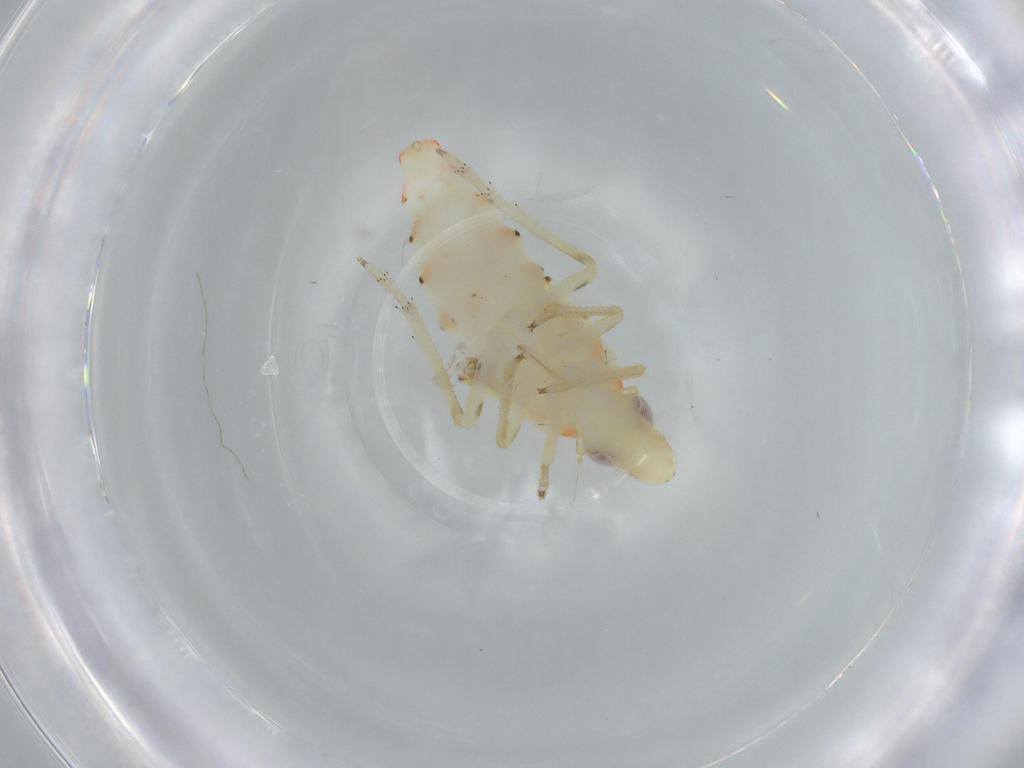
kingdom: Animalia
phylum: Arthropoda
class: Insecta
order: Hemiptera
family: Tropiduchidae
